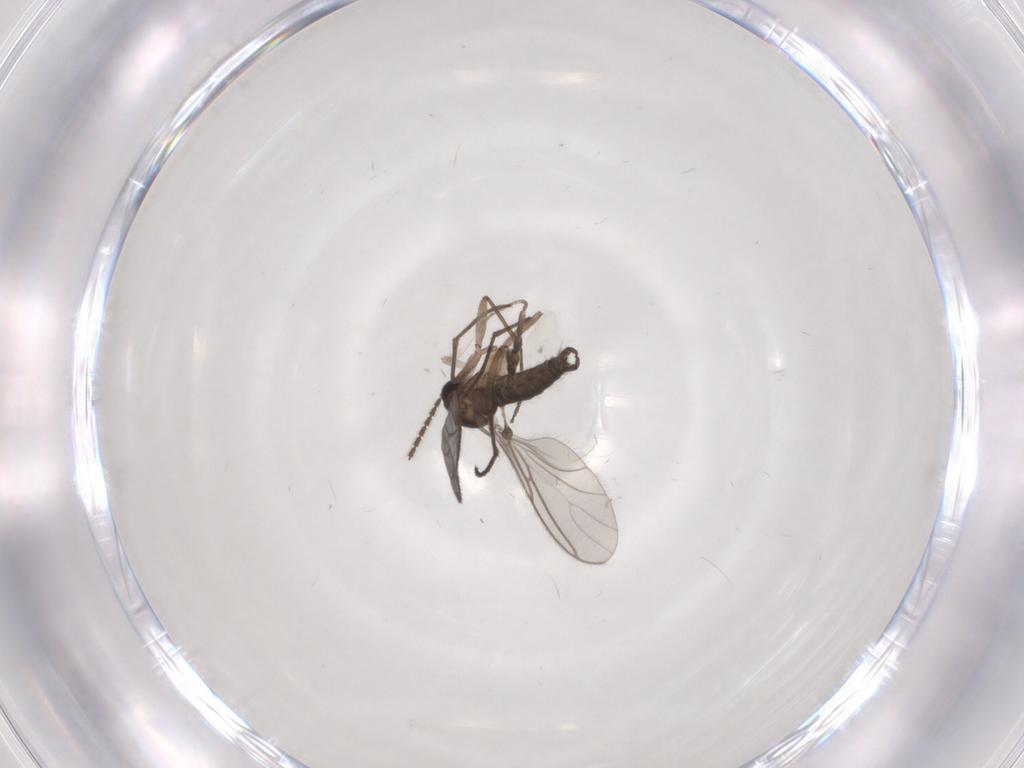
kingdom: Animalia
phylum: Arthropoda
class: Insecta
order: Diptera
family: Sciaridae
